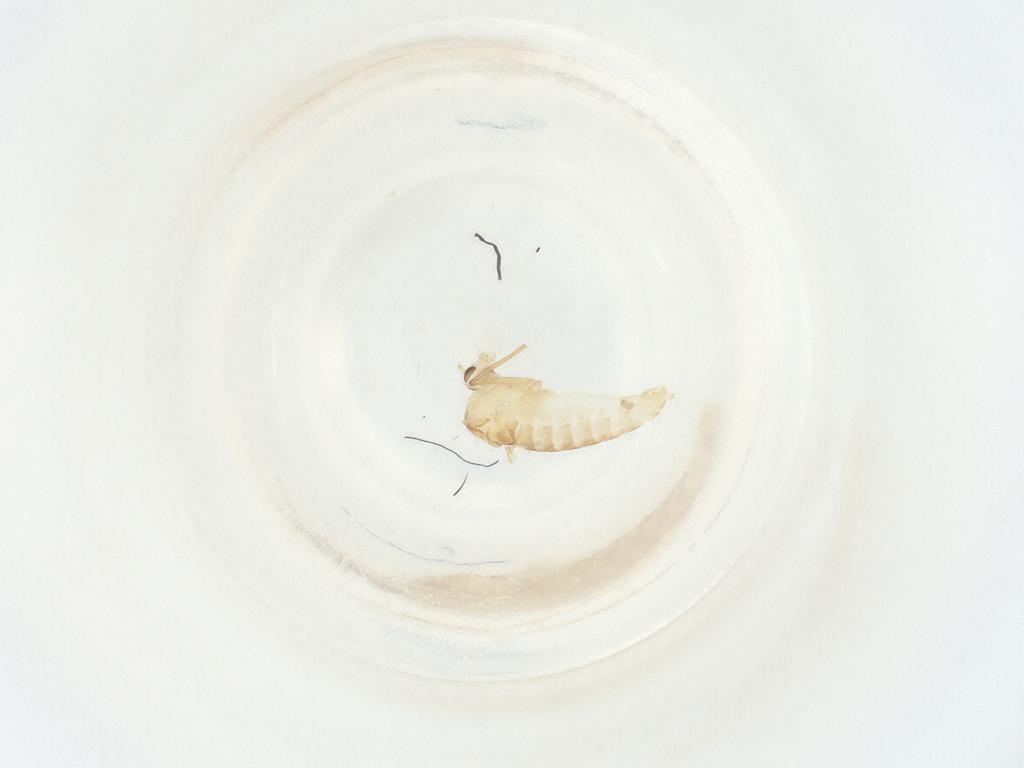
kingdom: Animalia
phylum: Arthropoda
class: Insecta
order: Diptera
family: Chironomidae
